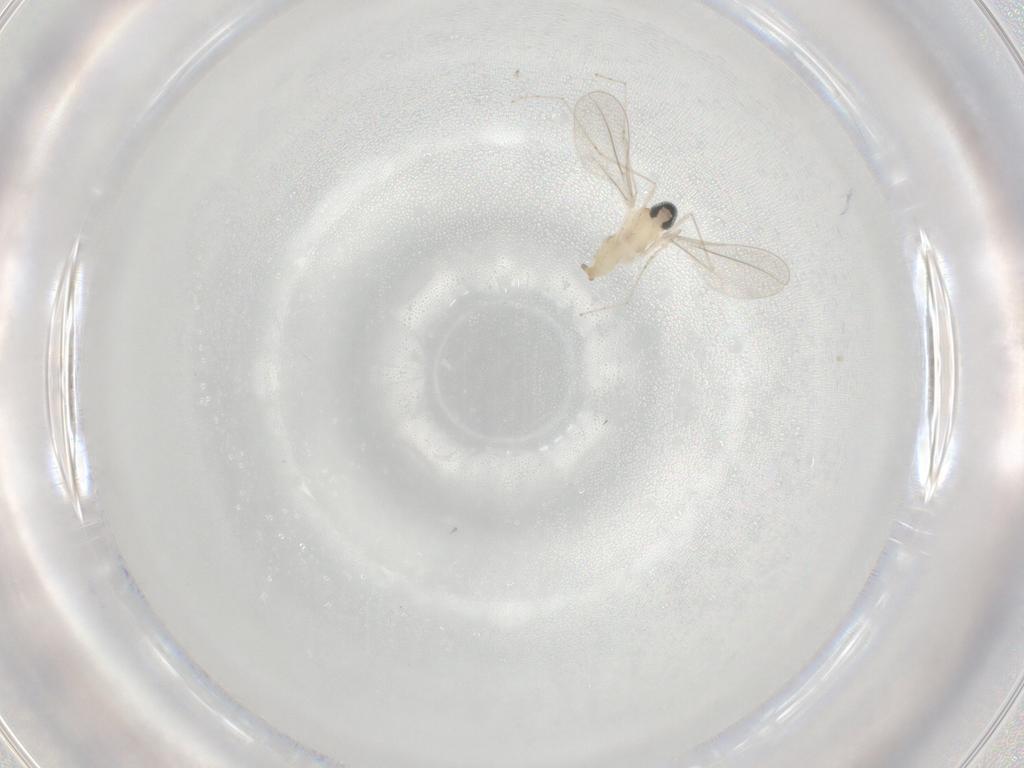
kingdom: Animalia
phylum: Arthropoda
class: Insecta
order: Diptera
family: Cecidomyiidae
